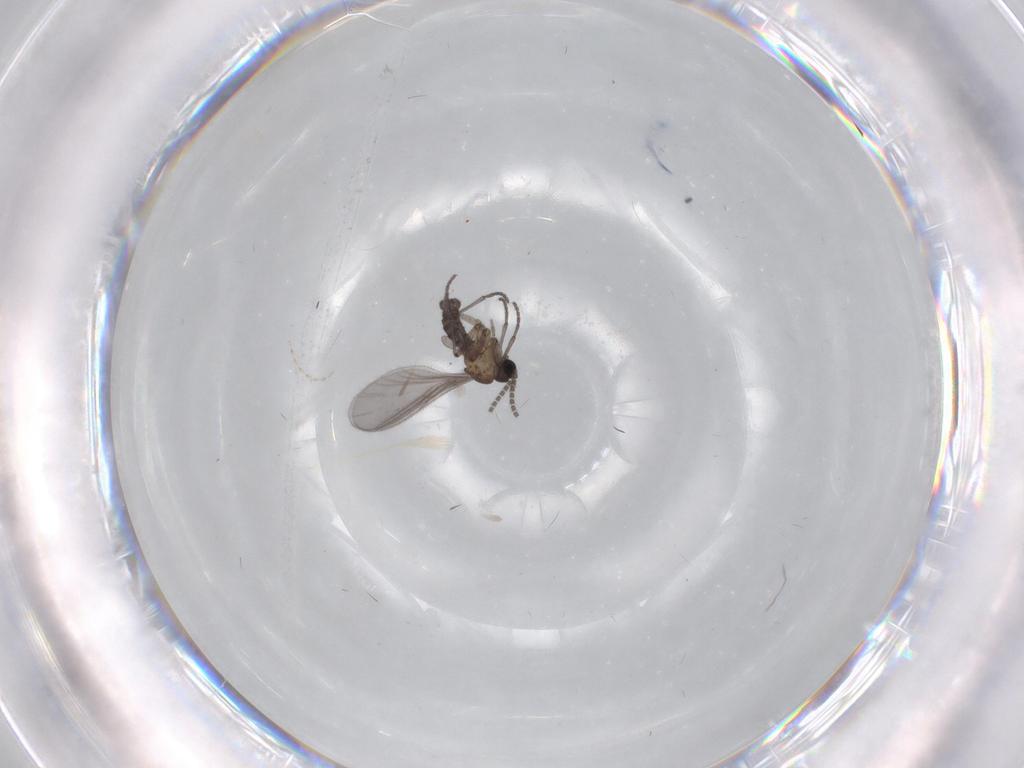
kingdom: Animalia
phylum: Arthropoda
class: Insecta
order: Diptera
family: Sciaridae
